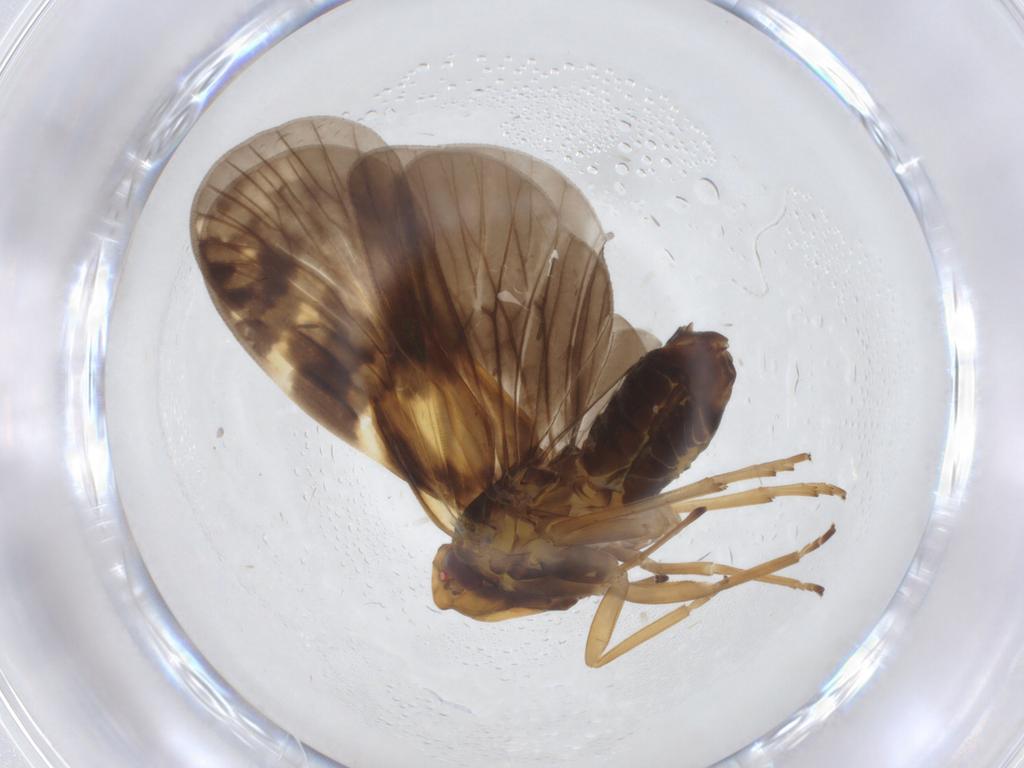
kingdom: Animalia
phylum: Arthropoda
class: Insecta
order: Hemiptera
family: Cixiidae
